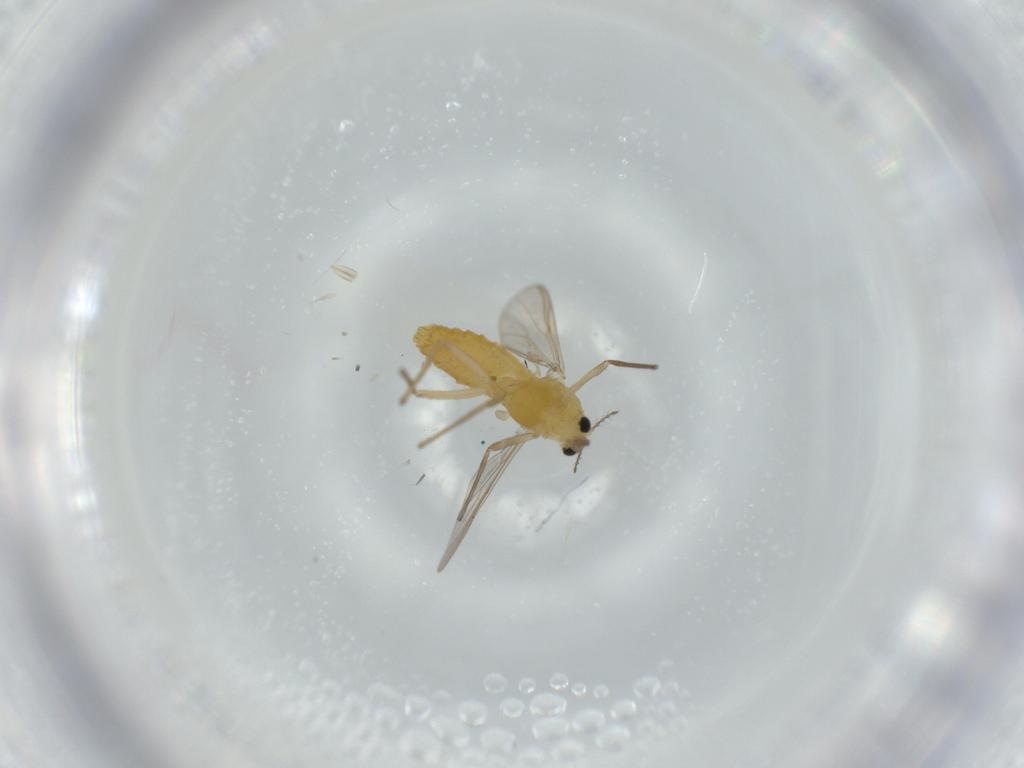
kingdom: Animalia
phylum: Arthropoda
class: Insecta
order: Diptera
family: Chironomidae
